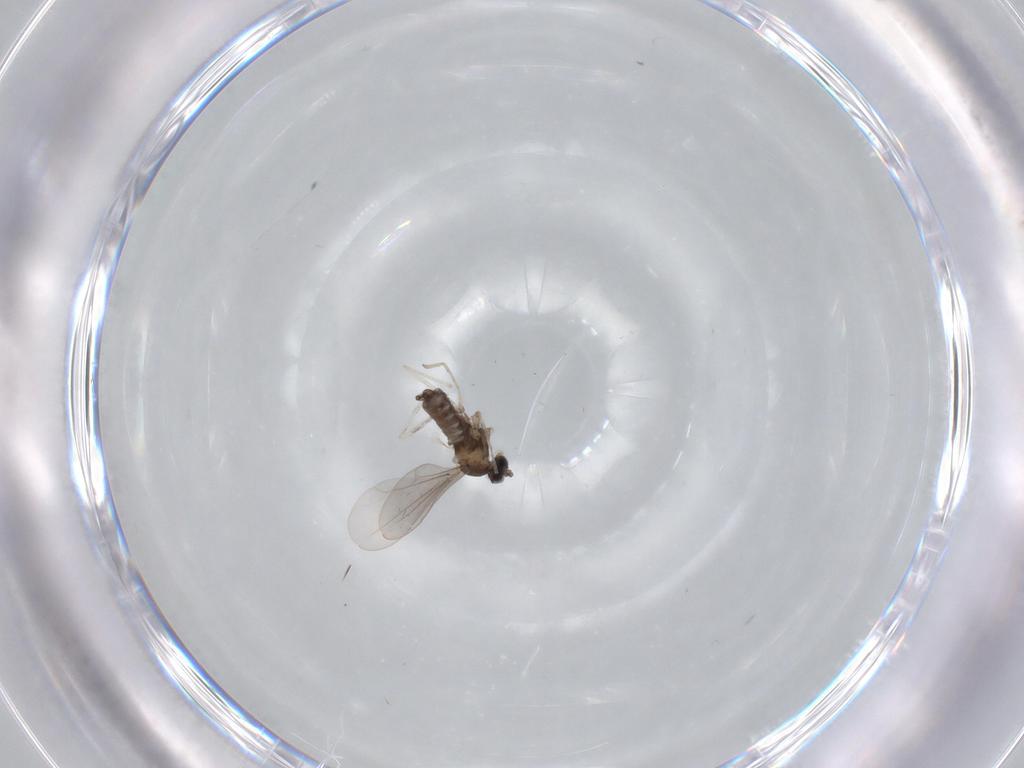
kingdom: Animalia
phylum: Arthropoda
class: Insecta
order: Diptera
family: Cecidomyiidae
